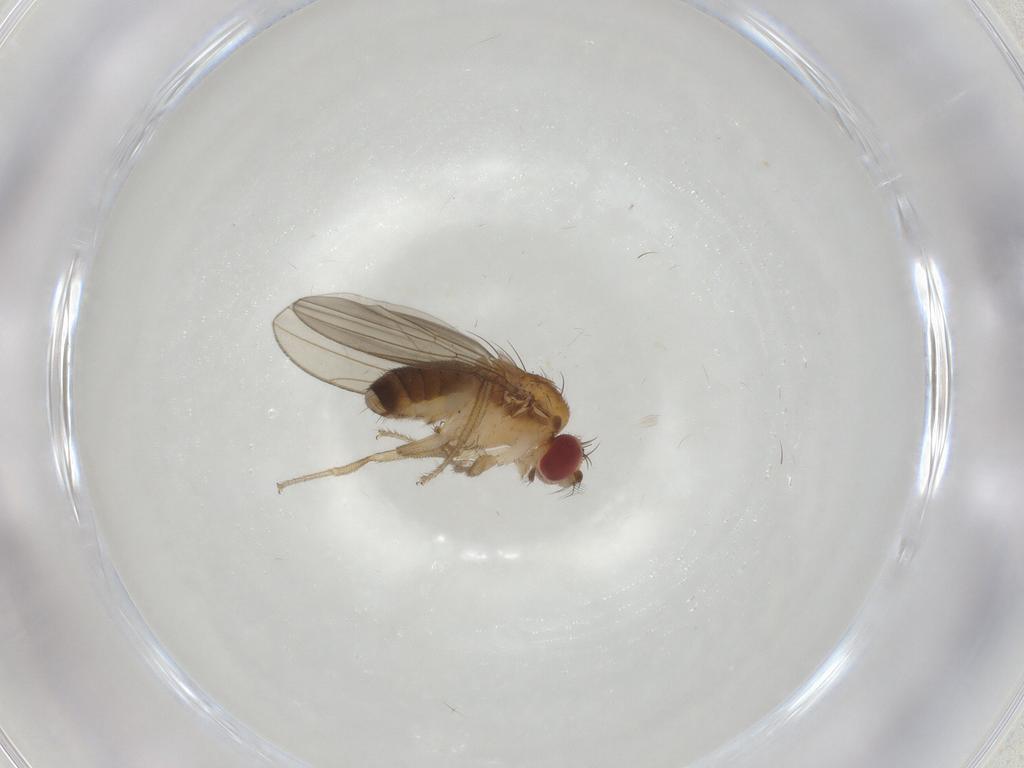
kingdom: Animalia
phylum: Arthropoda
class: Insecta
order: Diptera
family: Drosophilidae
